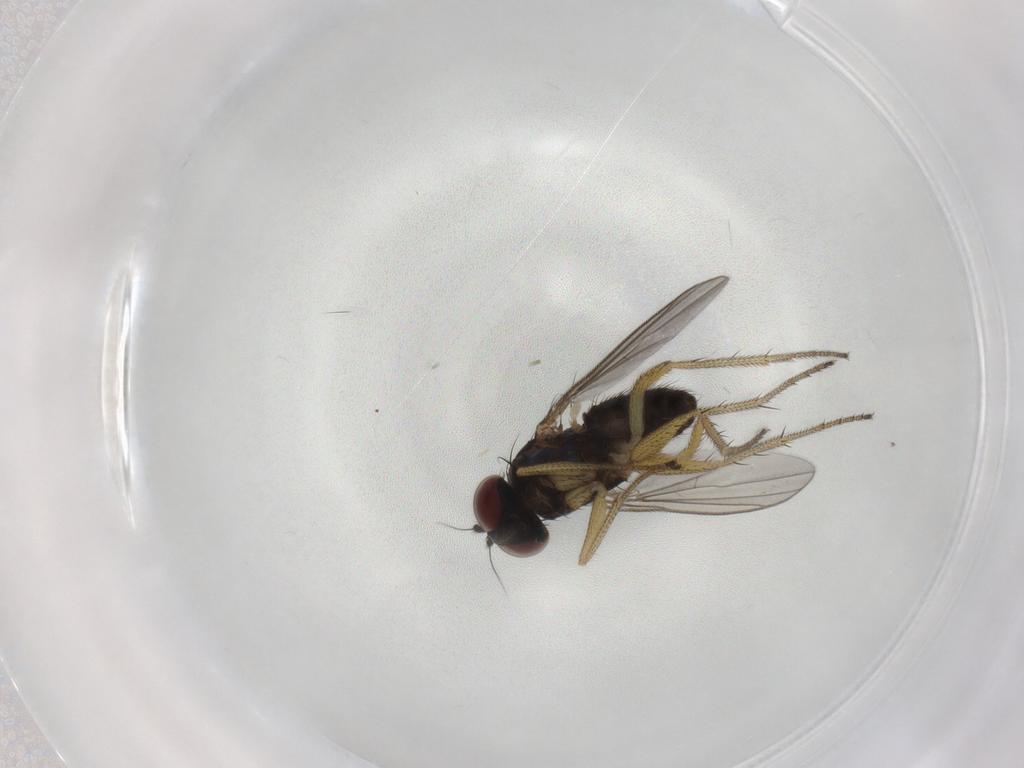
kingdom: Animalia
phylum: Arthropoda
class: Insecta
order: Diptera
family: Dolichopodidae
